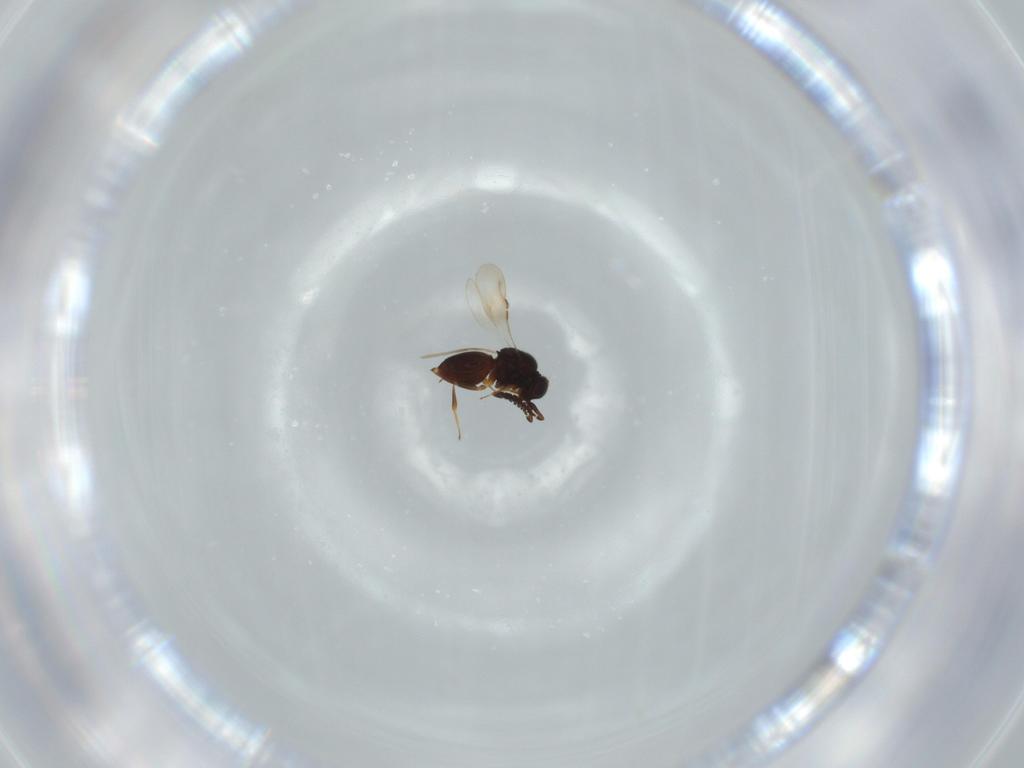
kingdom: Animalia
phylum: Arthropoda
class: Insecta
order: Hymenoptera
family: Ceraphronidae
